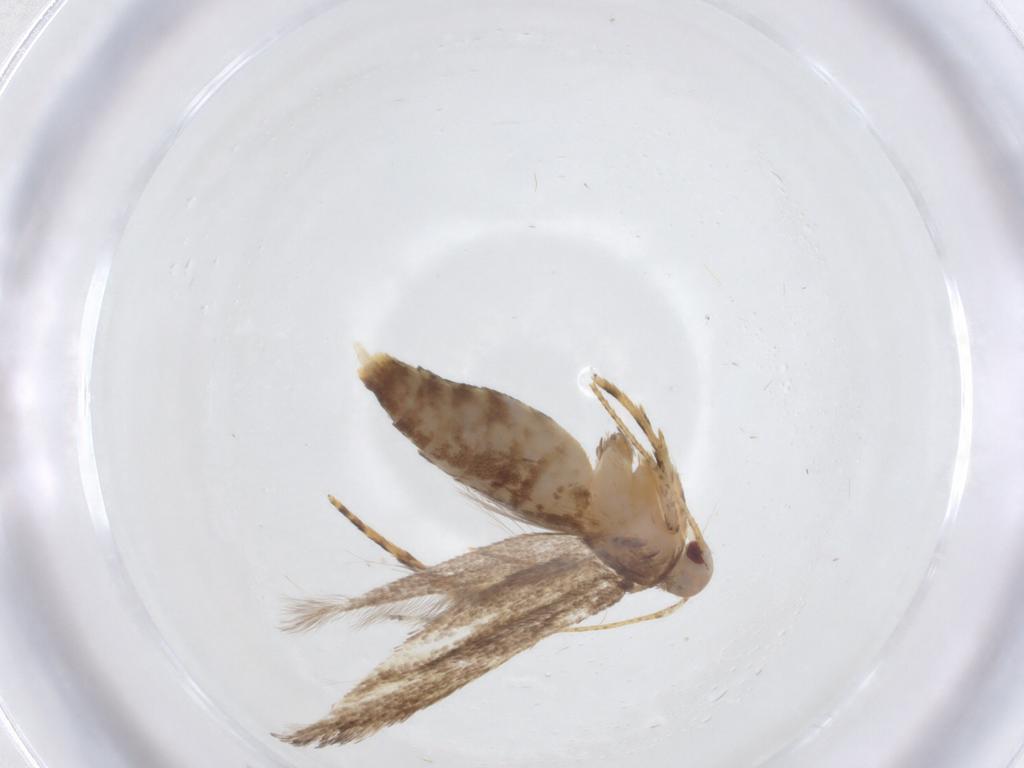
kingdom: Animalia
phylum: Arthropoda
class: Insecta
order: Lepidoptera
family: Cosmopterigidae
